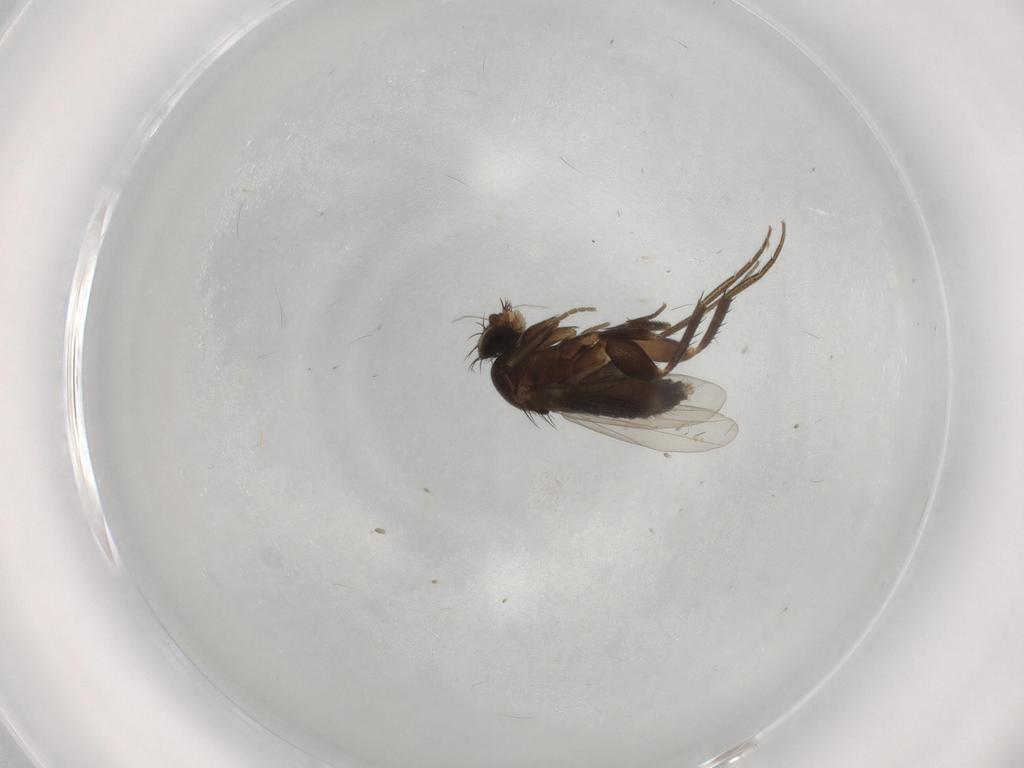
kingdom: Animalia
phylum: Arthropoda
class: Insecta
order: Diptera
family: Phoridae
